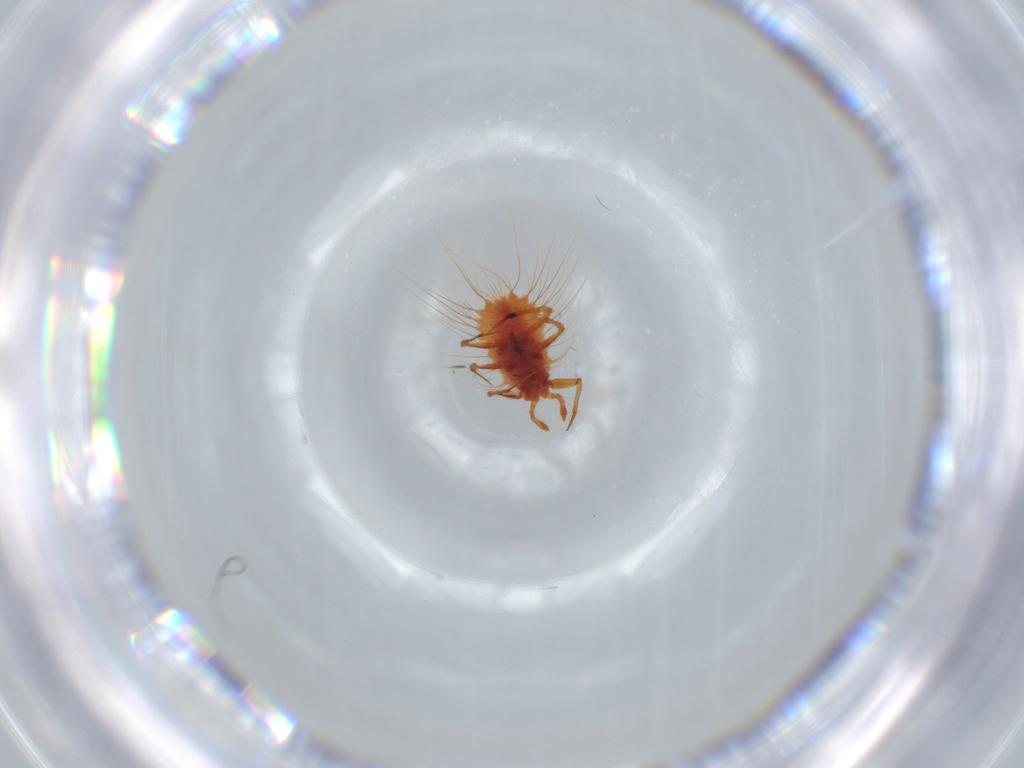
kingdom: Animalia
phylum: Arthropoda
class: Insecta
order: Hemiptera
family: Monophlebidae
